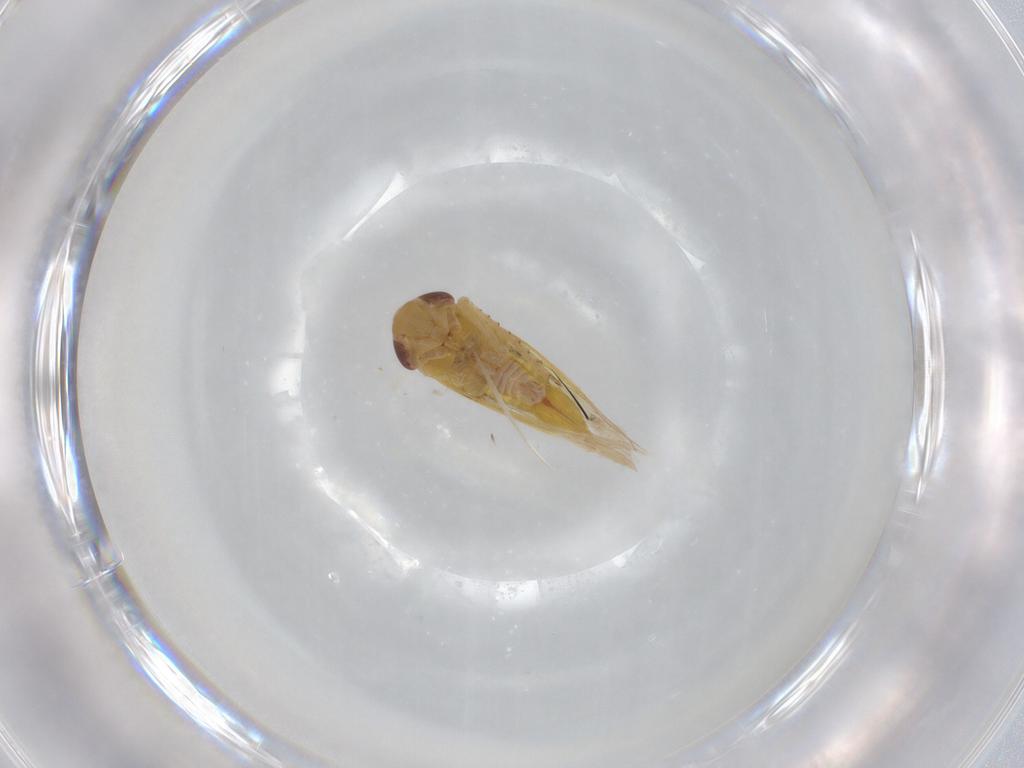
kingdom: Animalia
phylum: Arthropoda
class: Insecta
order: Hemiptera
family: Cicadellidae
